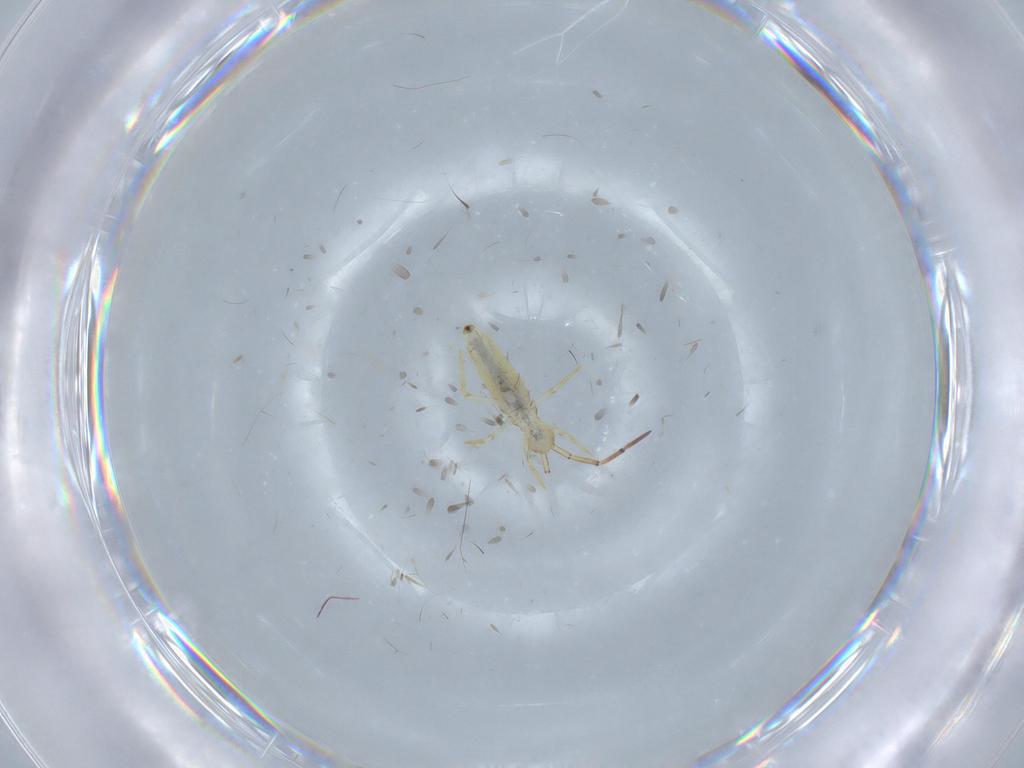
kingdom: Animalia
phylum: Arthropoda
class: Collembola
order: Entomobryomorpha
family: Paronellidae
